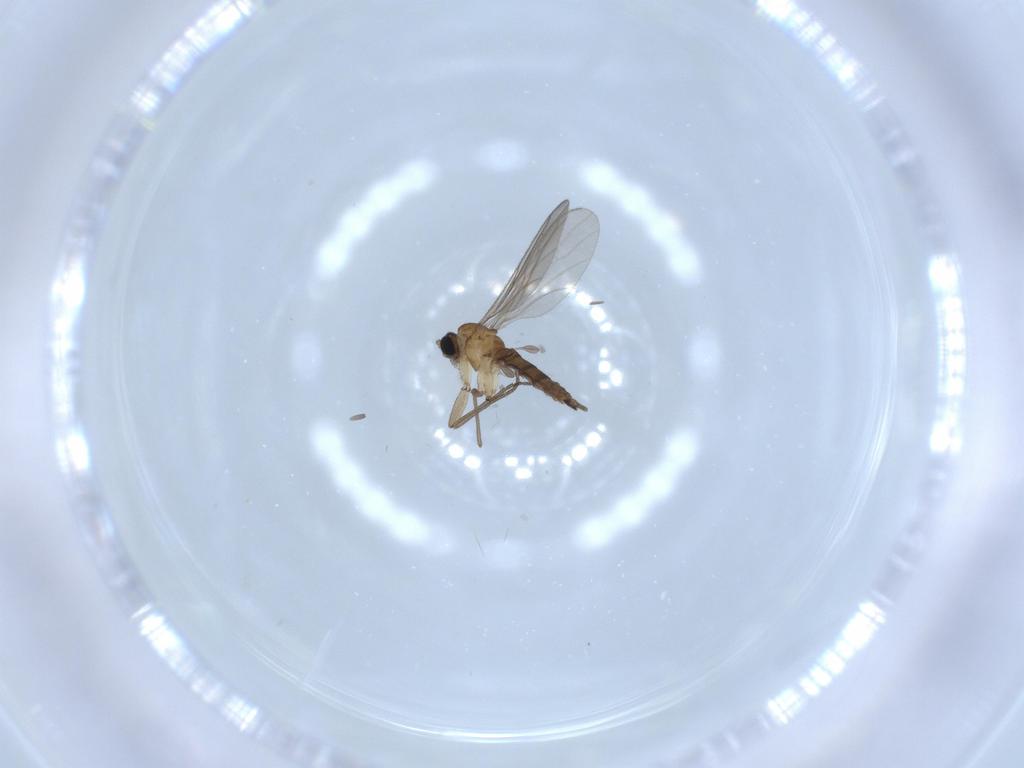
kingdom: Animalia
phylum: Arthropoda
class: Insecta
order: Diptera
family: Sciaridae
